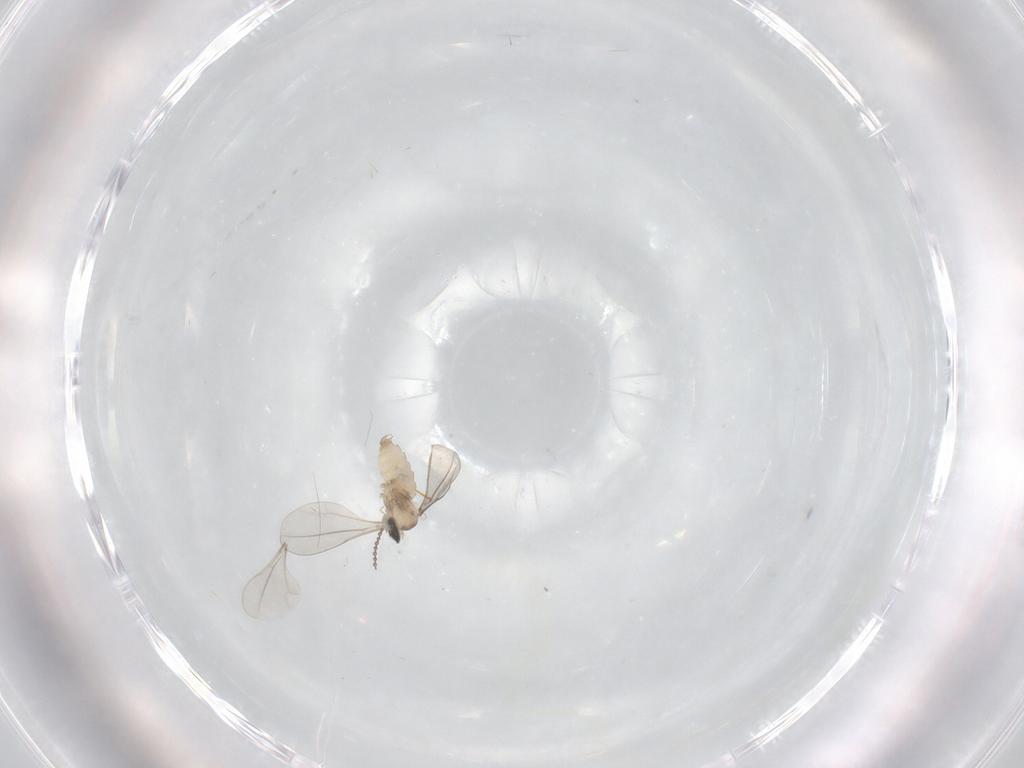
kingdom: Animalia
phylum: Arthropoda
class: Insecta
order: Diptera
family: Cecidomyiidae
